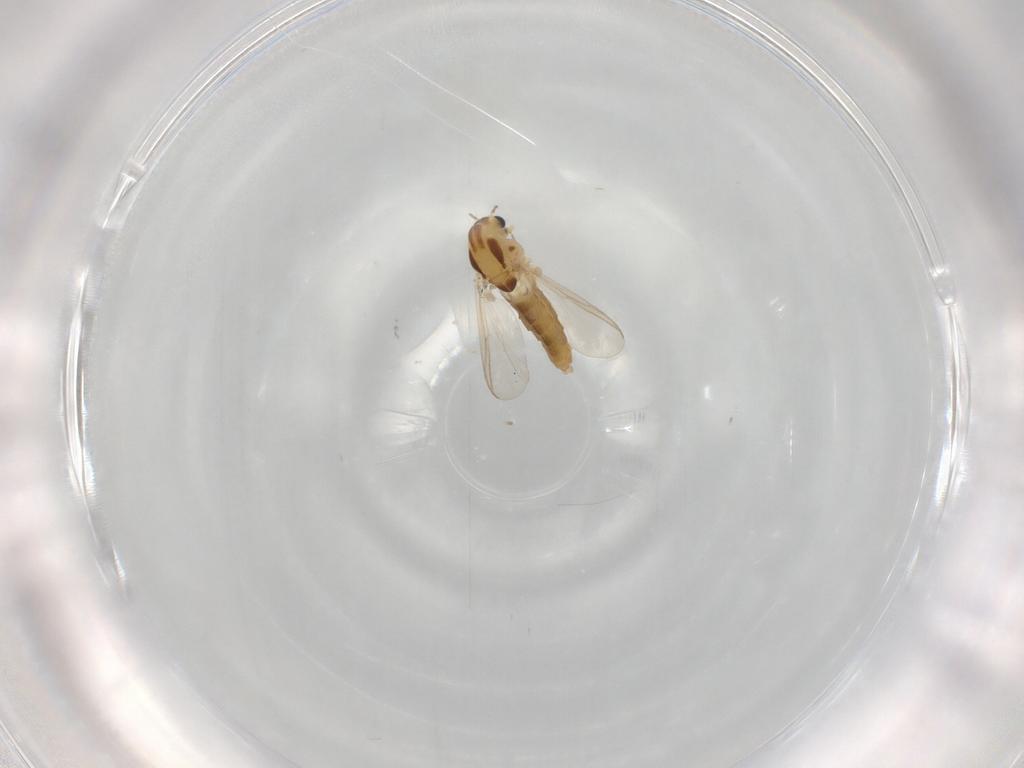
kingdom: Animalia
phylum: Arthropoda
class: Insecta
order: Diptera
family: Chironomidae
